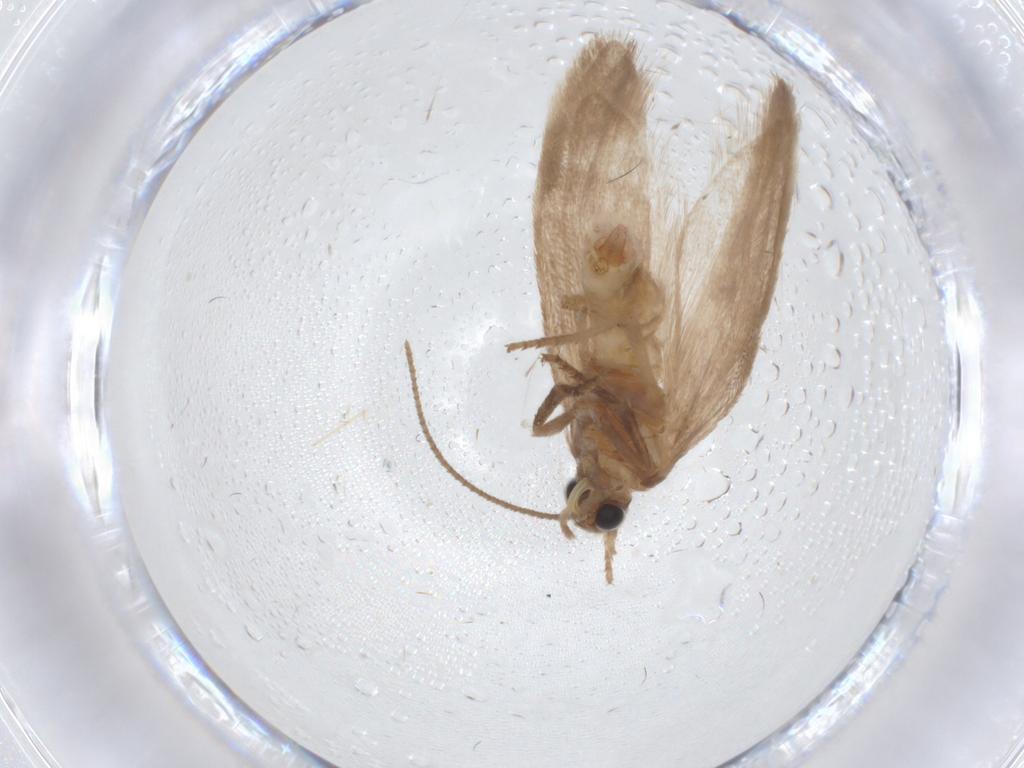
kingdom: Animalia
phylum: Arthropoda
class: Insecta
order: Lepidoptera
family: Yponomeutidae
